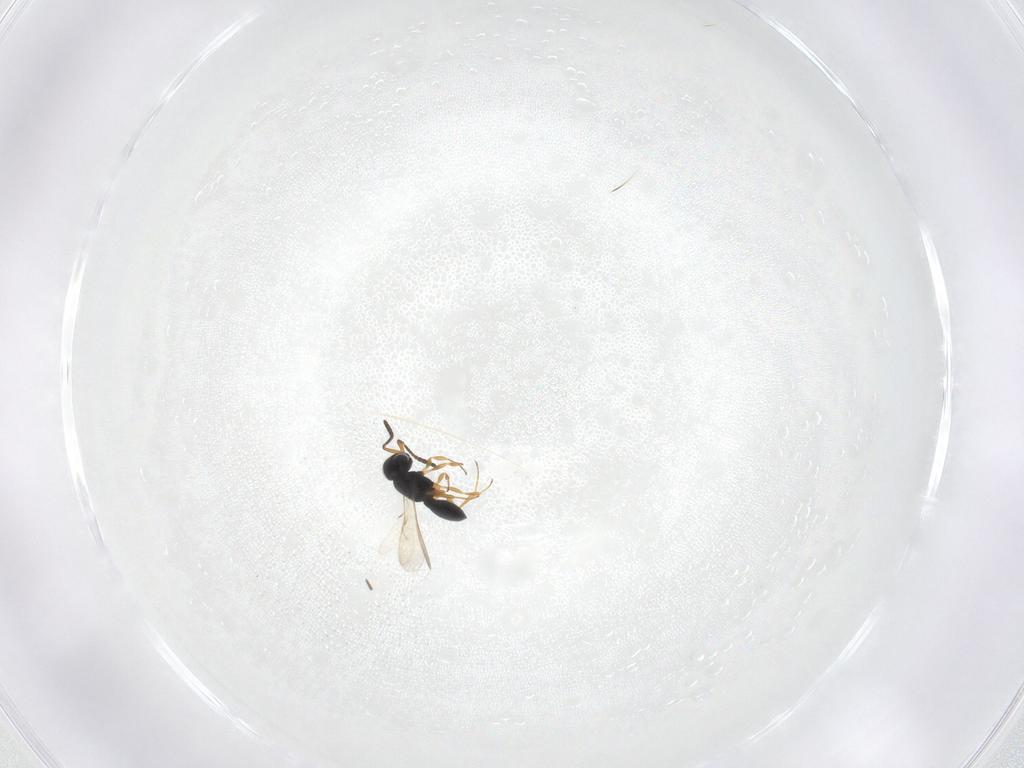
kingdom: Animalia
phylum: Arthropoda
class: Insecta
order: Hymenoptera
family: Scelionidae
